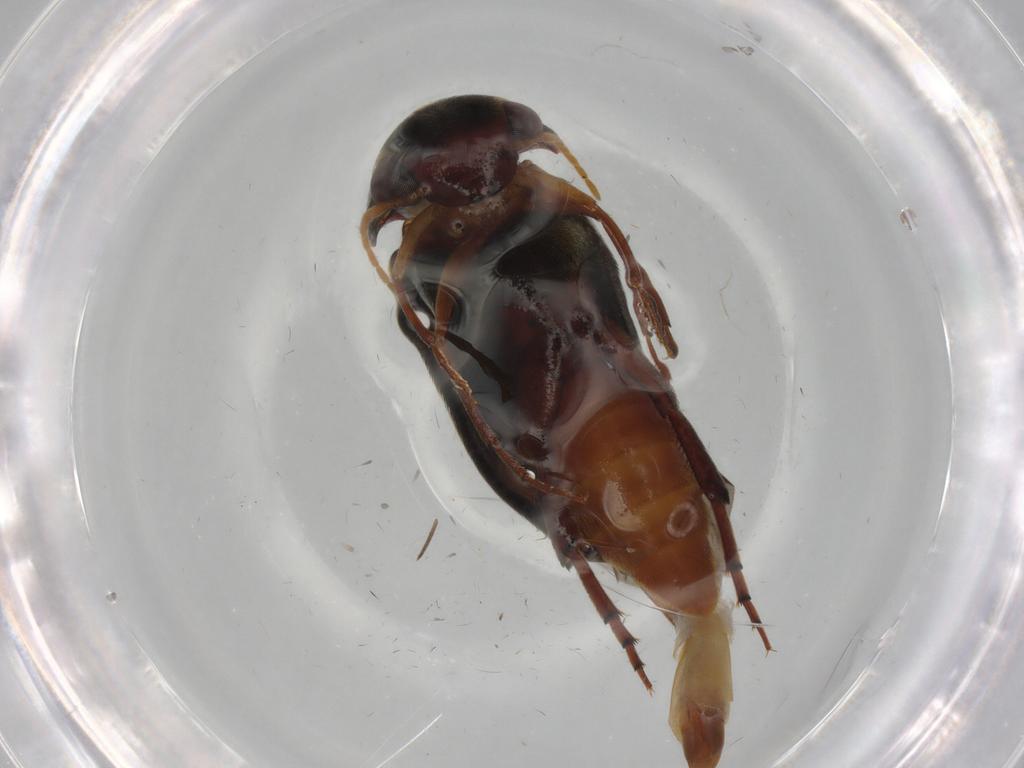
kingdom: Animalia
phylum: Arthropoda
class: Insecta
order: Coleoptera
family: Mordellidae
